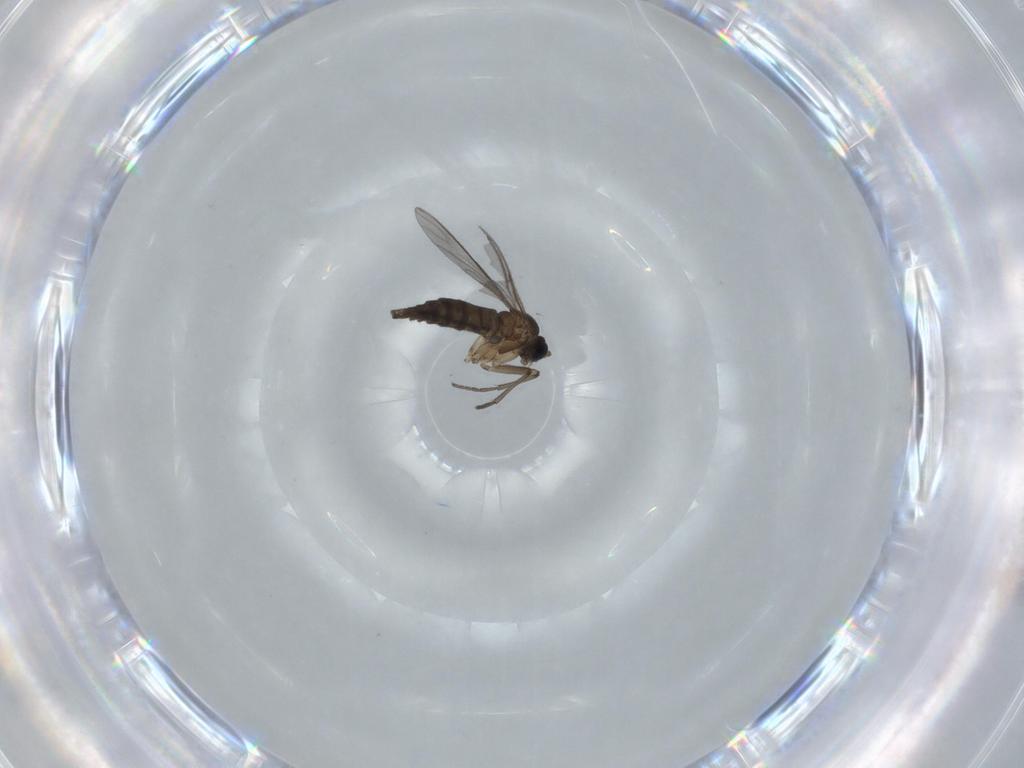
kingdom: Animalia
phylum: Arthropoda
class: Insecta
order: Diptera
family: Sciaridae
